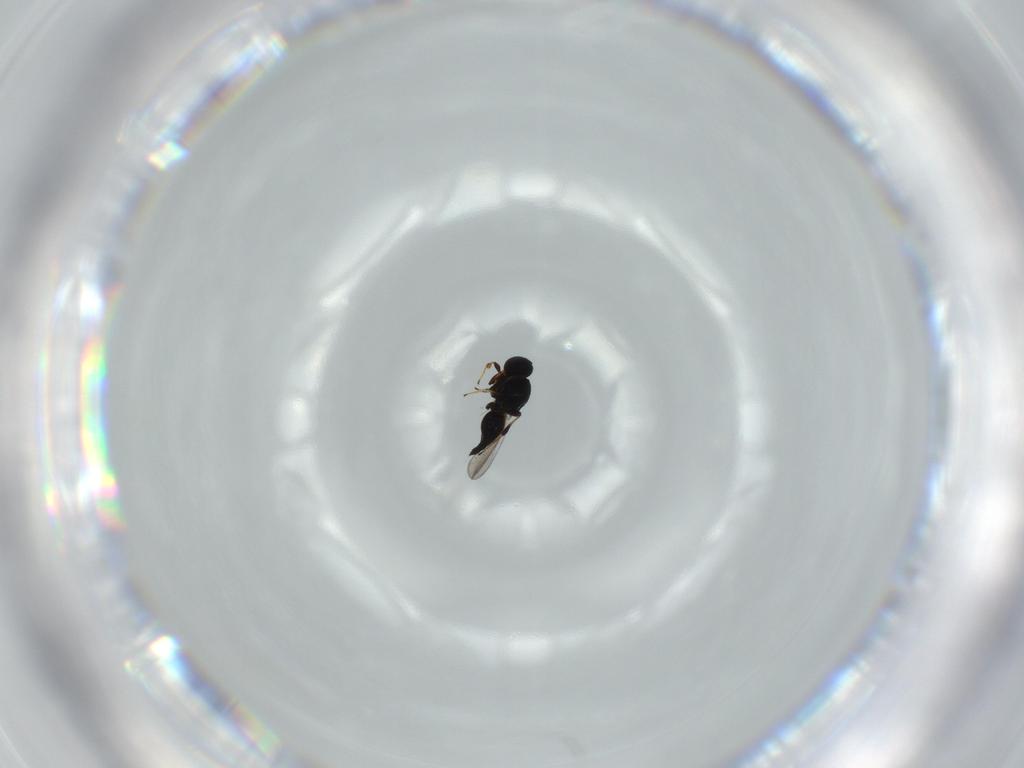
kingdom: Animalia
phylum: Arthropoda
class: Insecta
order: Hymenoptera
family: Platygastridae
